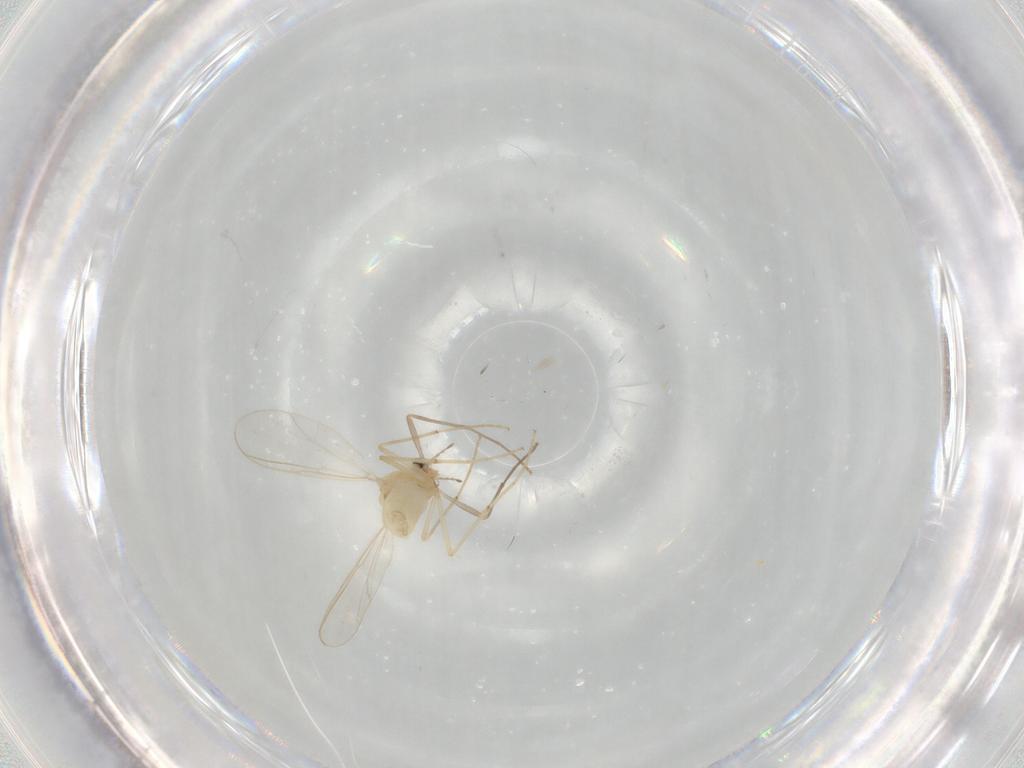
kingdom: Animalia
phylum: Arthropoda
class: Insecta
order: Diptera
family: Chironomidae
